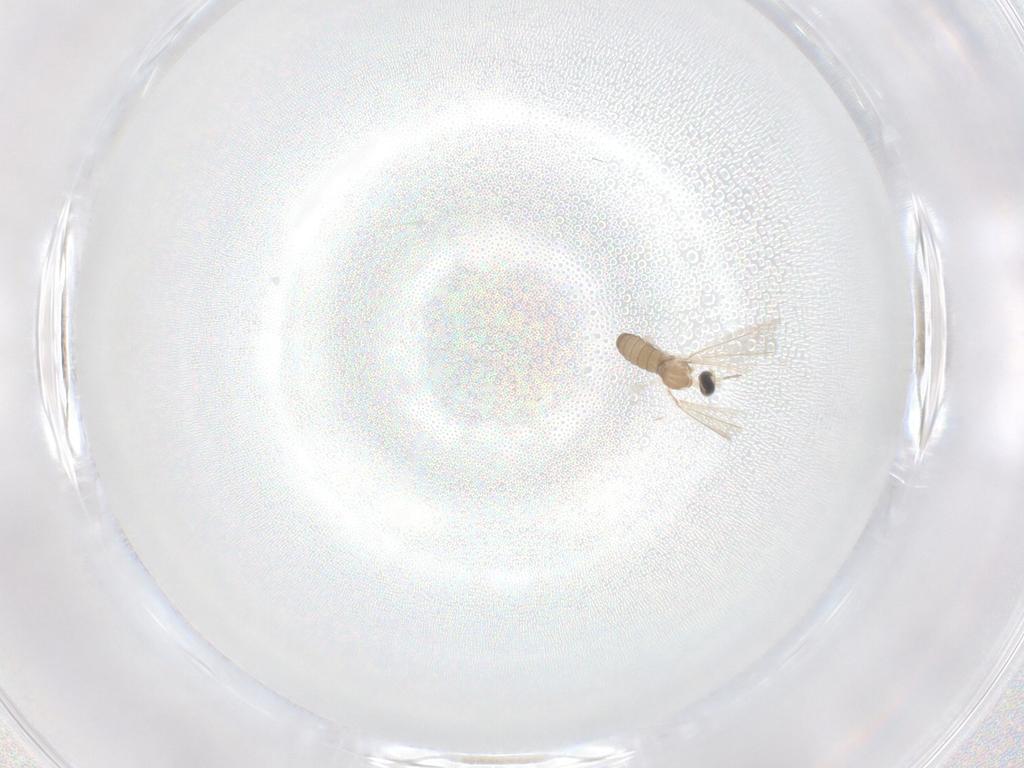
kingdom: Animalia
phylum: Arthropoda
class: Insecta
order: Diptera
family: Cecidomyiidae
